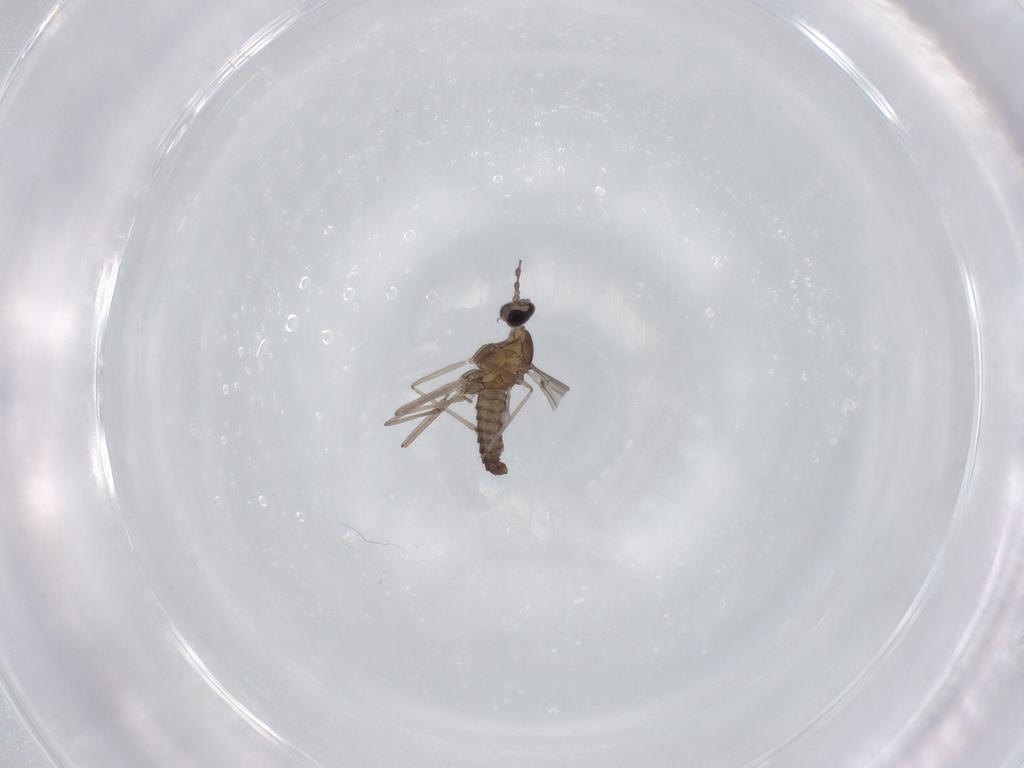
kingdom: Animalia
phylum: Arthropoda
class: Insecta
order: Diptera
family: Cecidomyiidae
